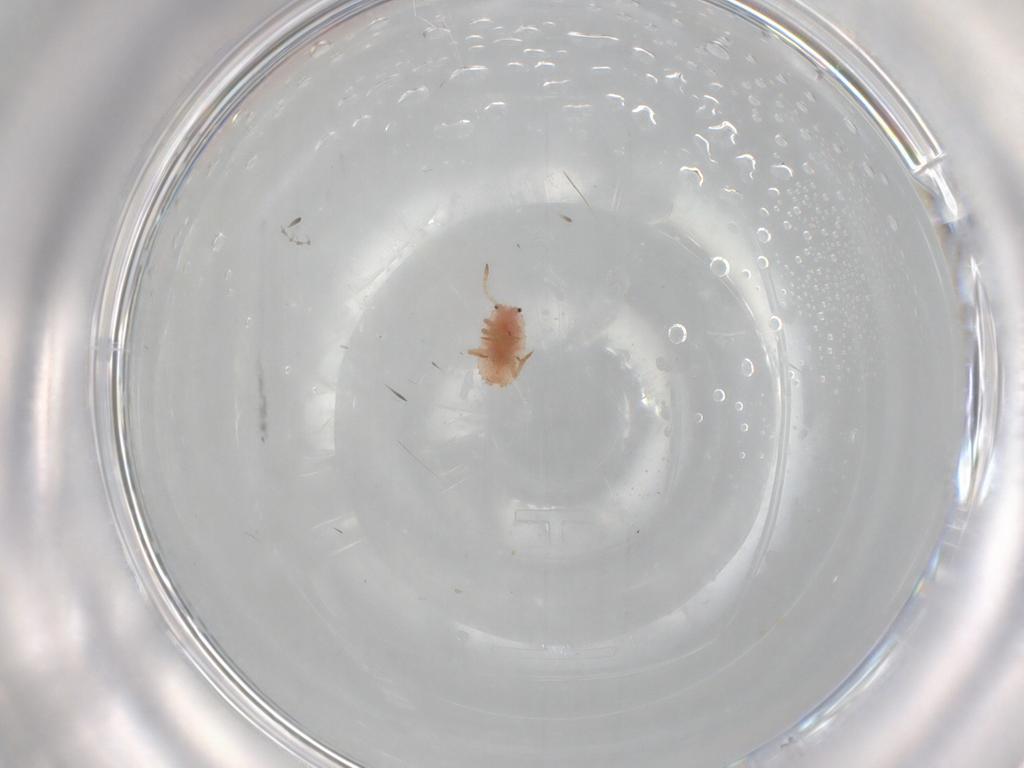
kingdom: Animalia
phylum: Arthropoda
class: Insecta
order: Hemiptera
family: Coccoidea_incertae_sedis
